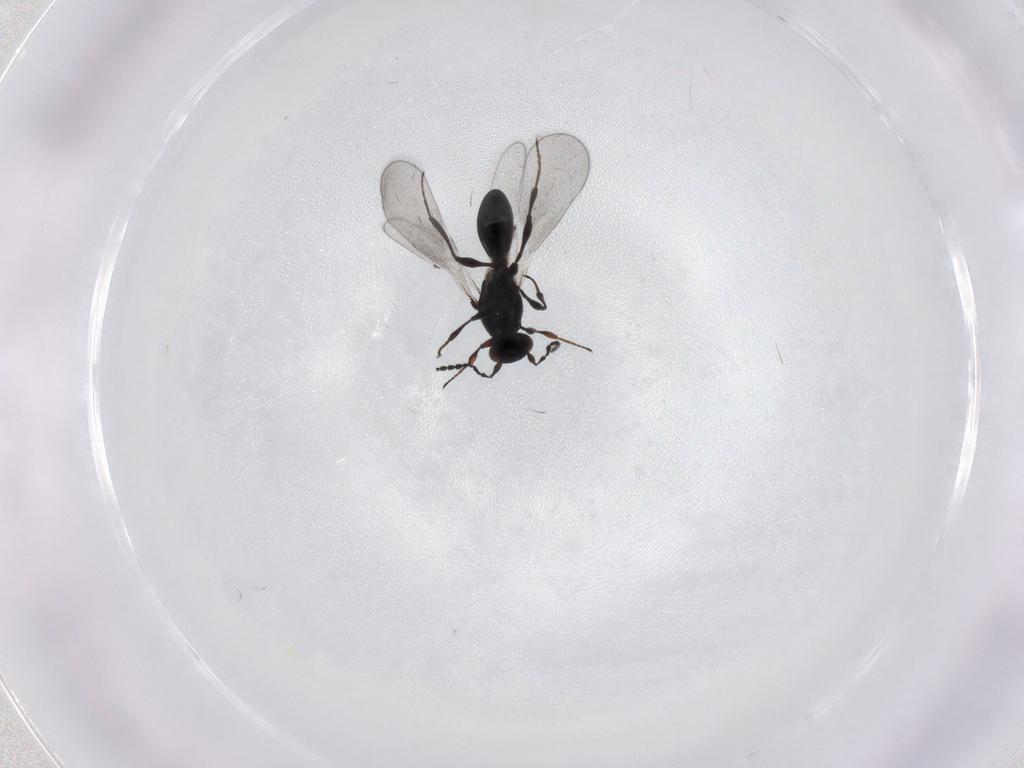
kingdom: Animalia
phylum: Arthropoda
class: Insecta
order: Hymenoptera
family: Platygastridae
